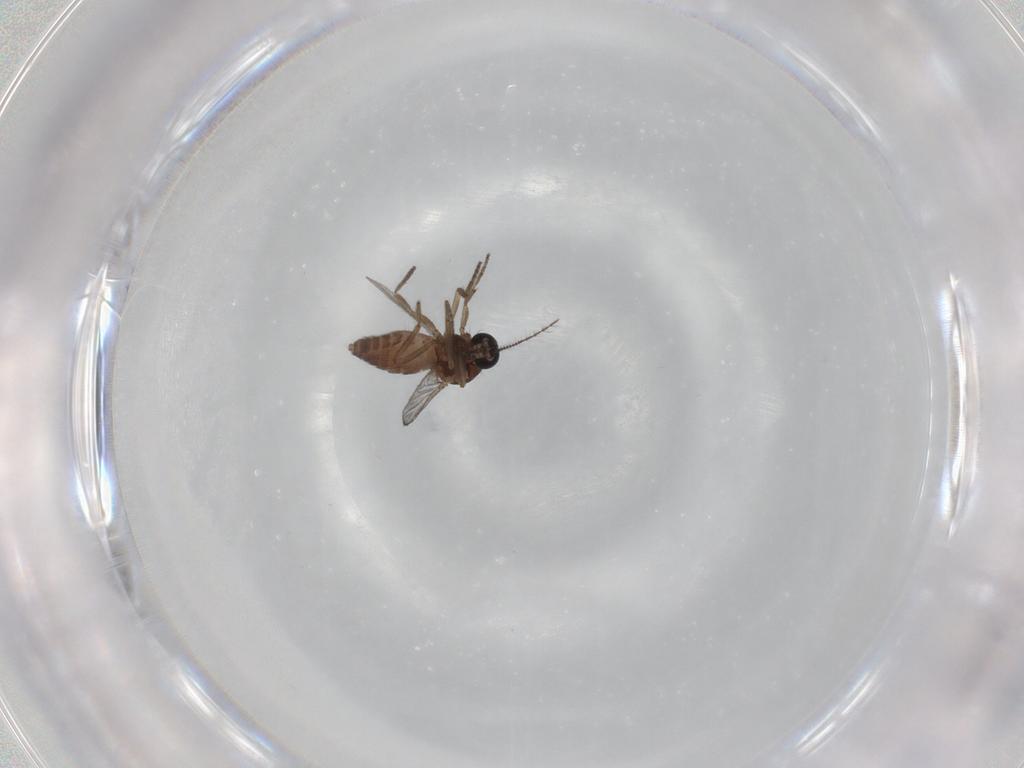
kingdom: Animalia
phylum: Arthropoda
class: Insecta
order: Diptera
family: Ceratopogonidae
